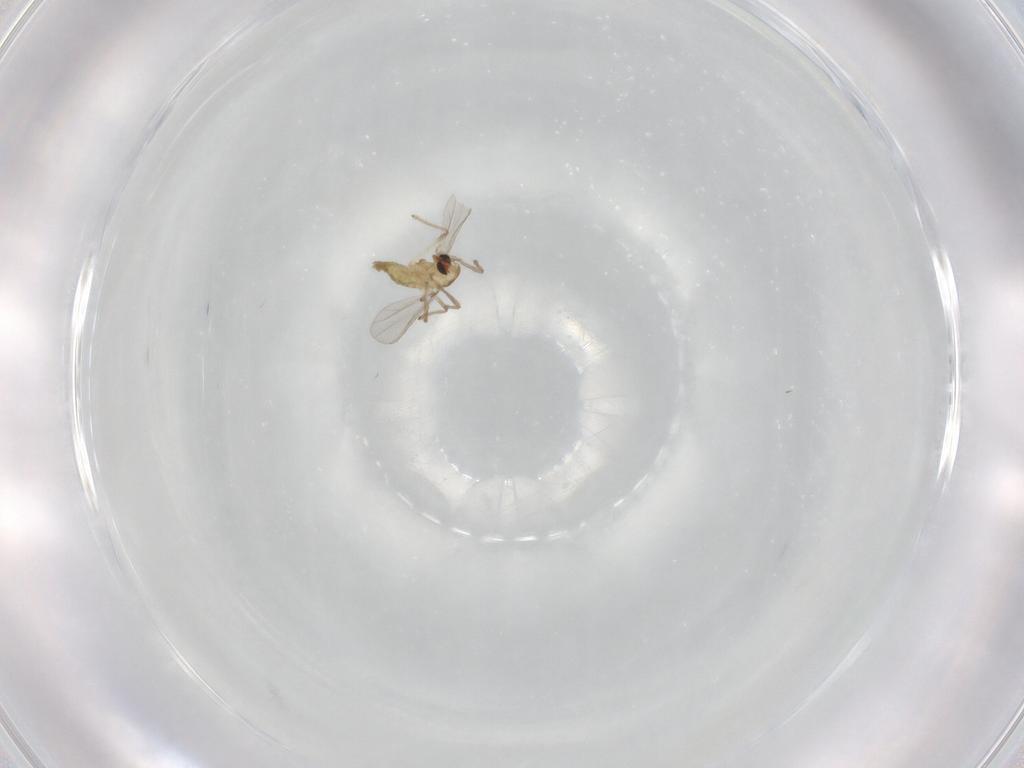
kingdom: Animalia
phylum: Arthropoda
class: Insecta
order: Diptera
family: Chironomidae
